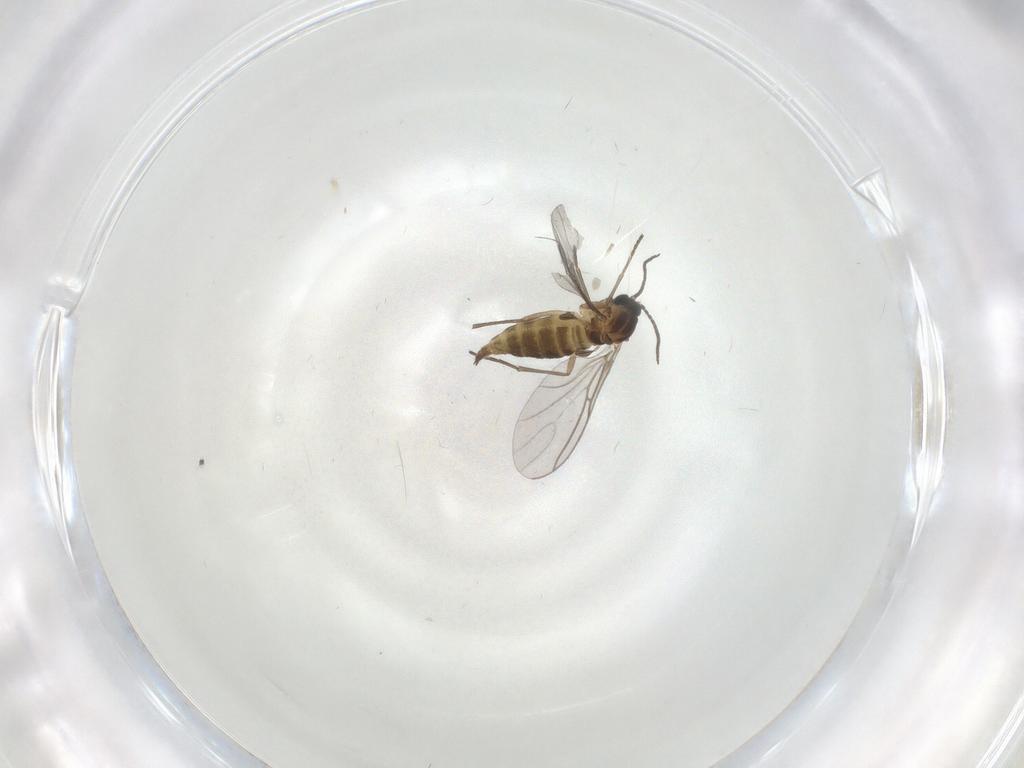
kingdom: Animalia
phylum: Arthropoda
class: Insecta
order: Diptera
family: Sciaridae
